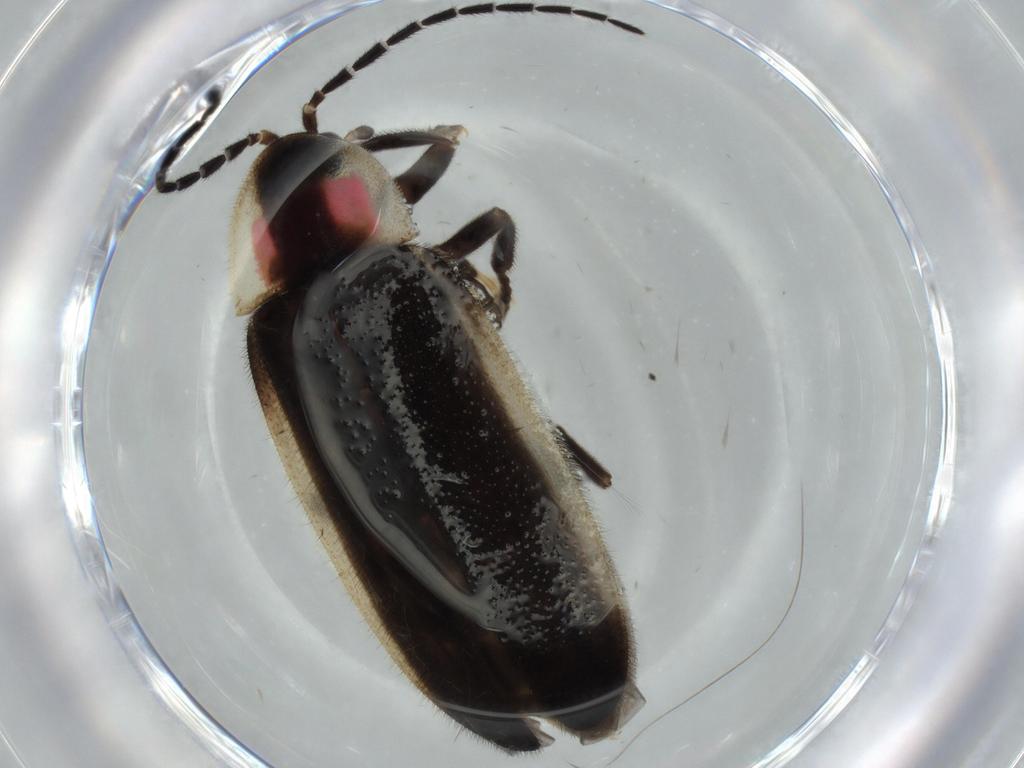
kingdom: Animalia
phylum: Arthropoda
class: Insecta
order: Coleoptera
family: Lampyridae
